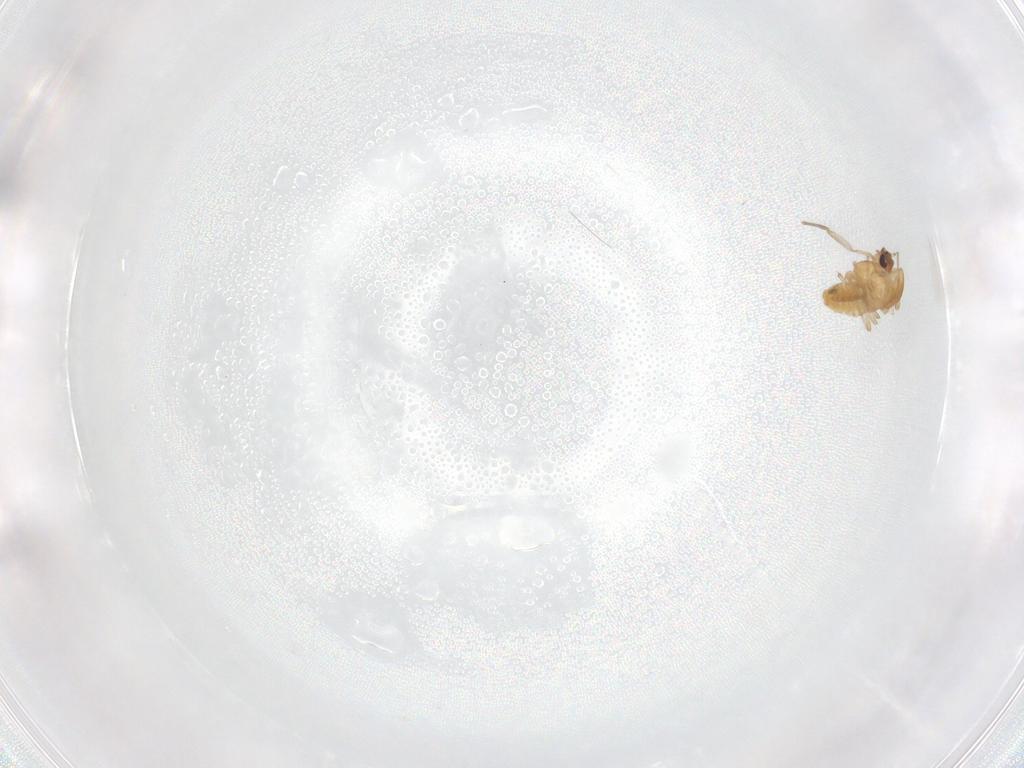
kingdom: Animalia
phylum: Arthropoda
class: Insecta
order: Diptera
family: Chironomidae
